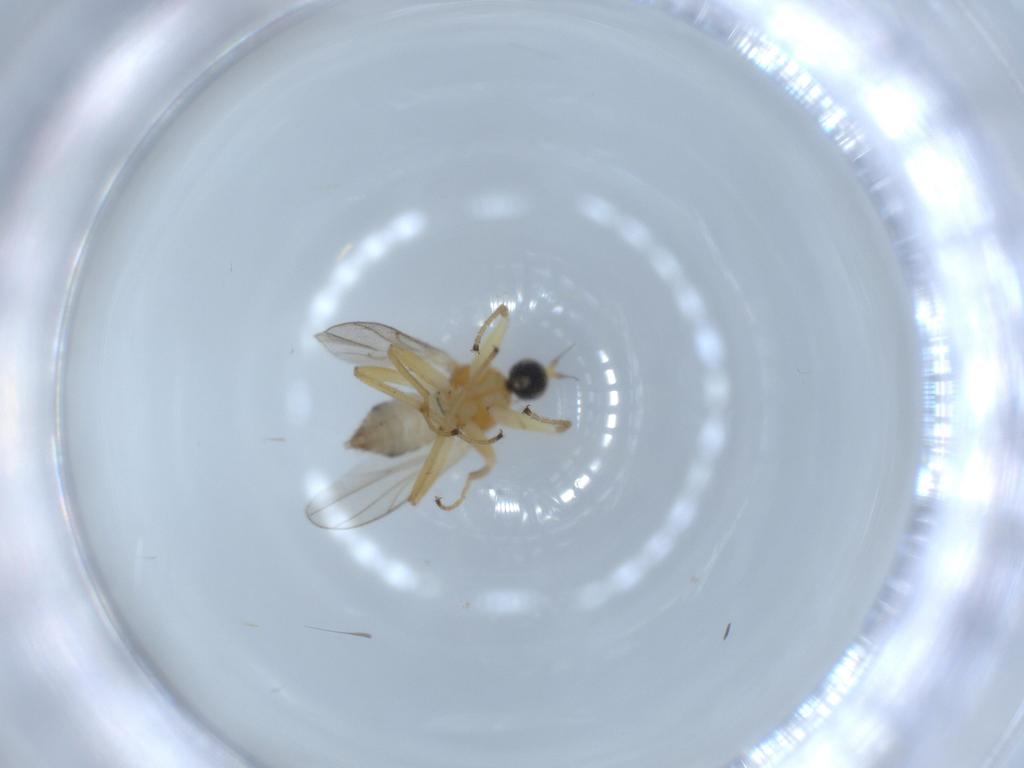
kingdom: Animalia
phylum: Arthropoda
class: Insecta
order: Diptera
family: Hybotidae
